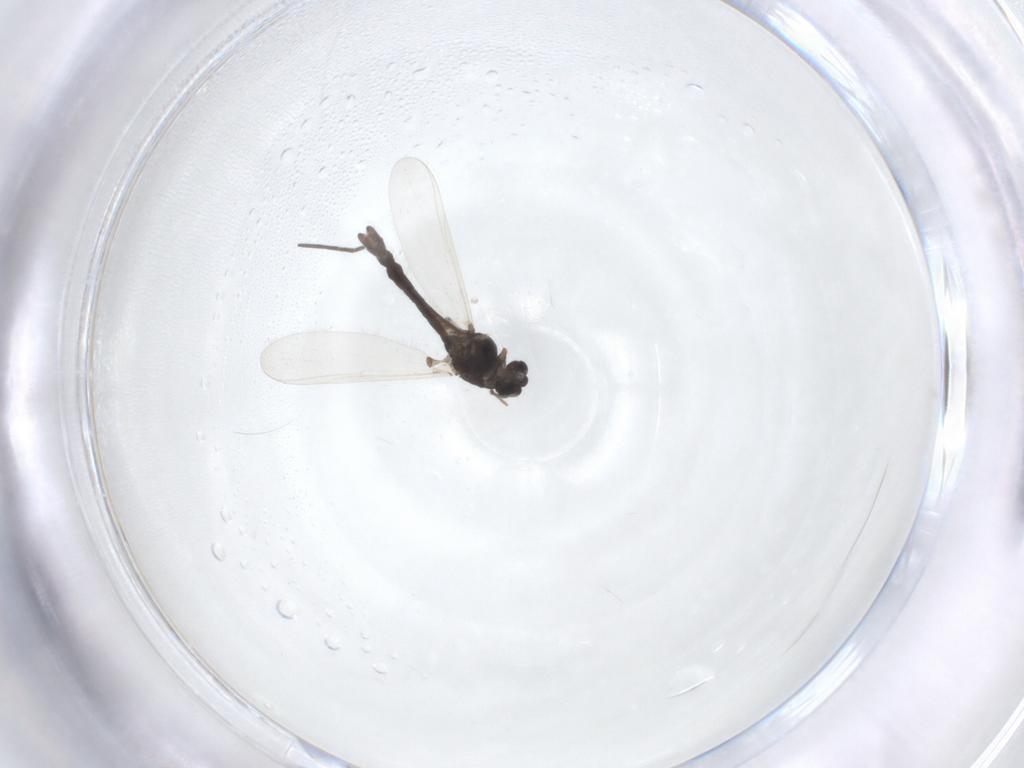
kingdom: Animalia
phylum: Arthropoda
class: Insecta
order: Diptera
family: Chironomidae
